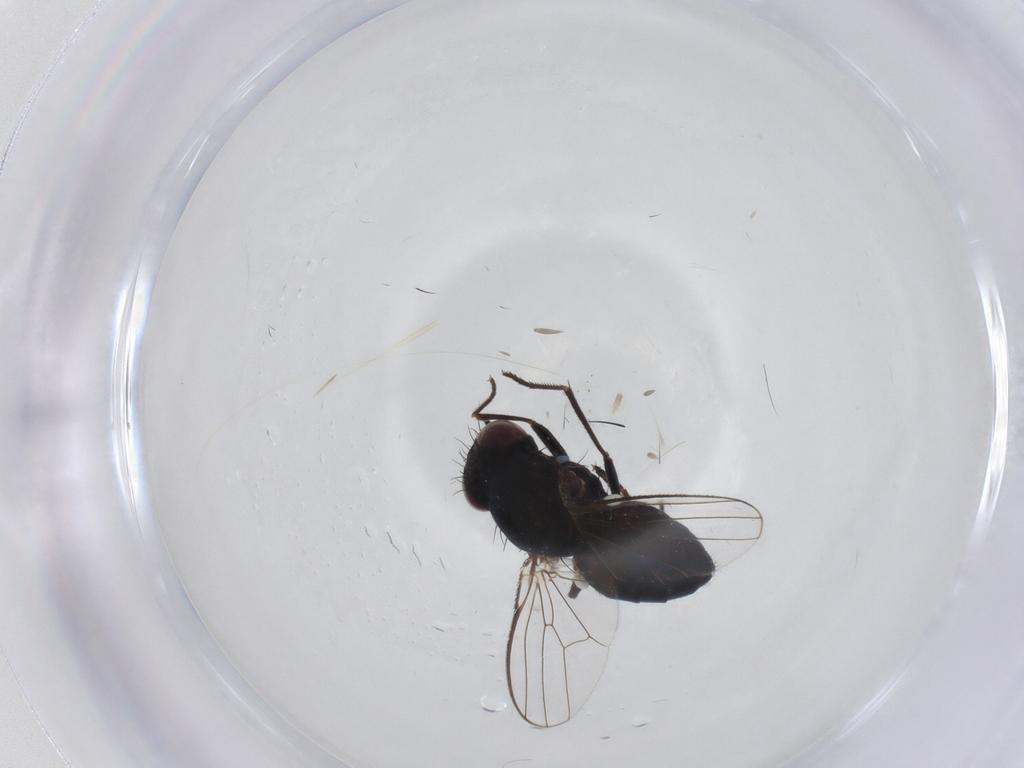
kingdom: Animalia
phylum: Arthropoda
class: Insecta
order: Diptera
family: Carnidae
